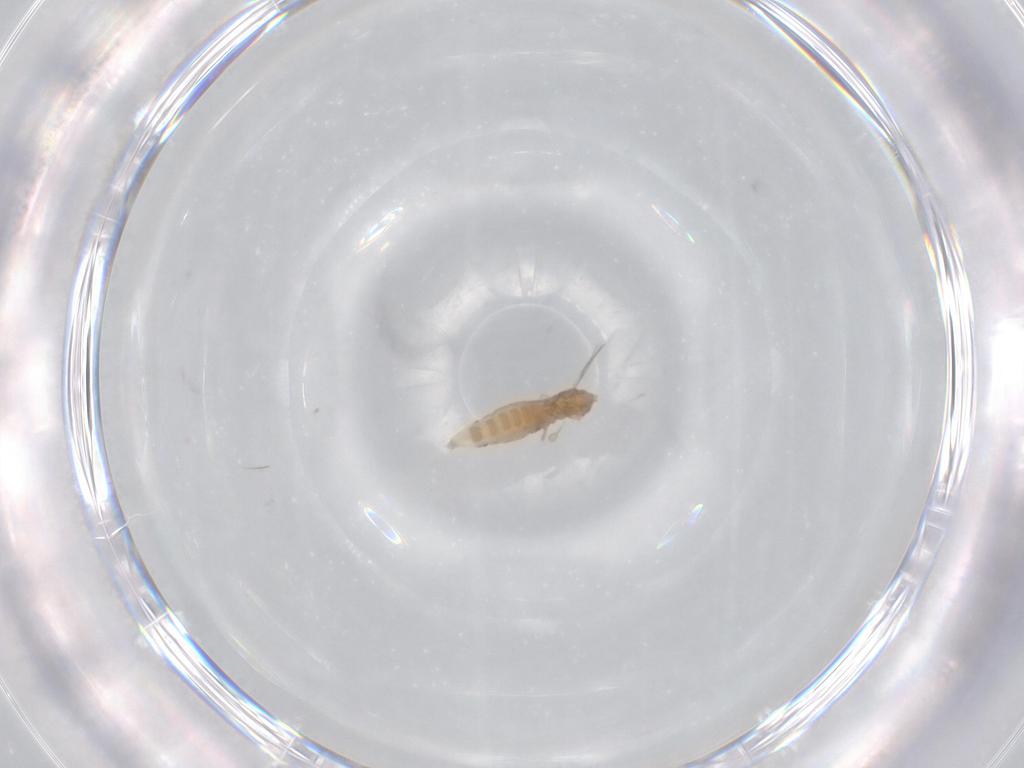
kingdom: Animalia
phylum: Arthropoda
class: Insecta
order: Diptera
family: Cecidomyiidae
